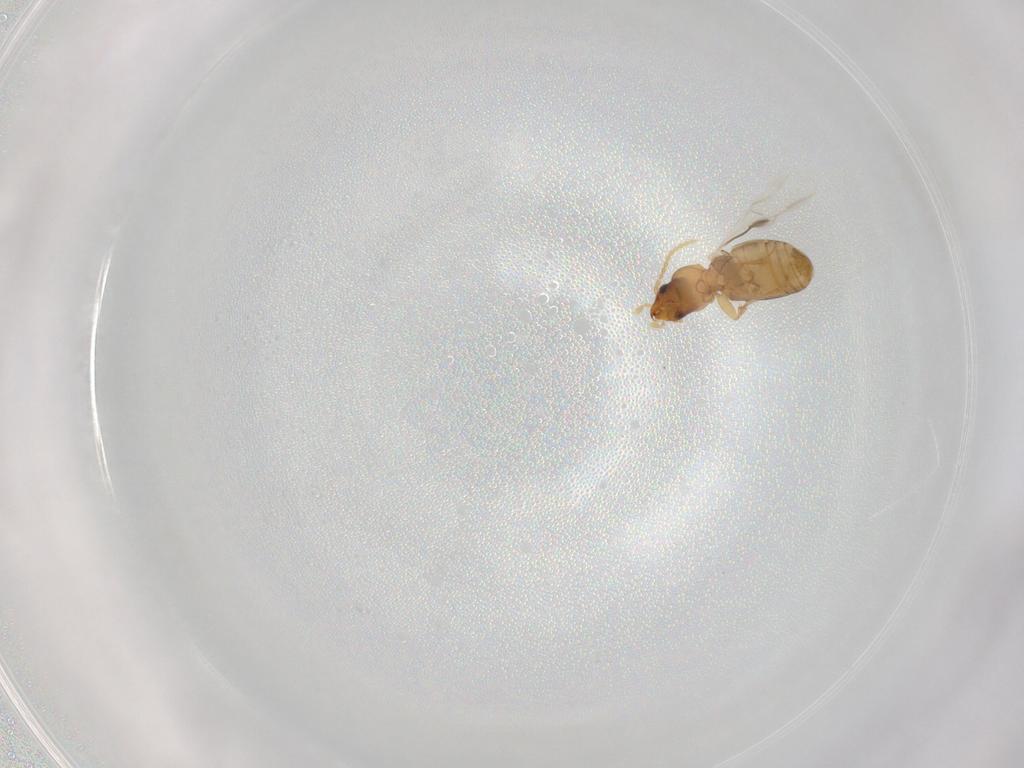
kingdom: Animalia
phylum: Arthropoda
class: Insecta
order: Coleoptera
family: Carabidae
